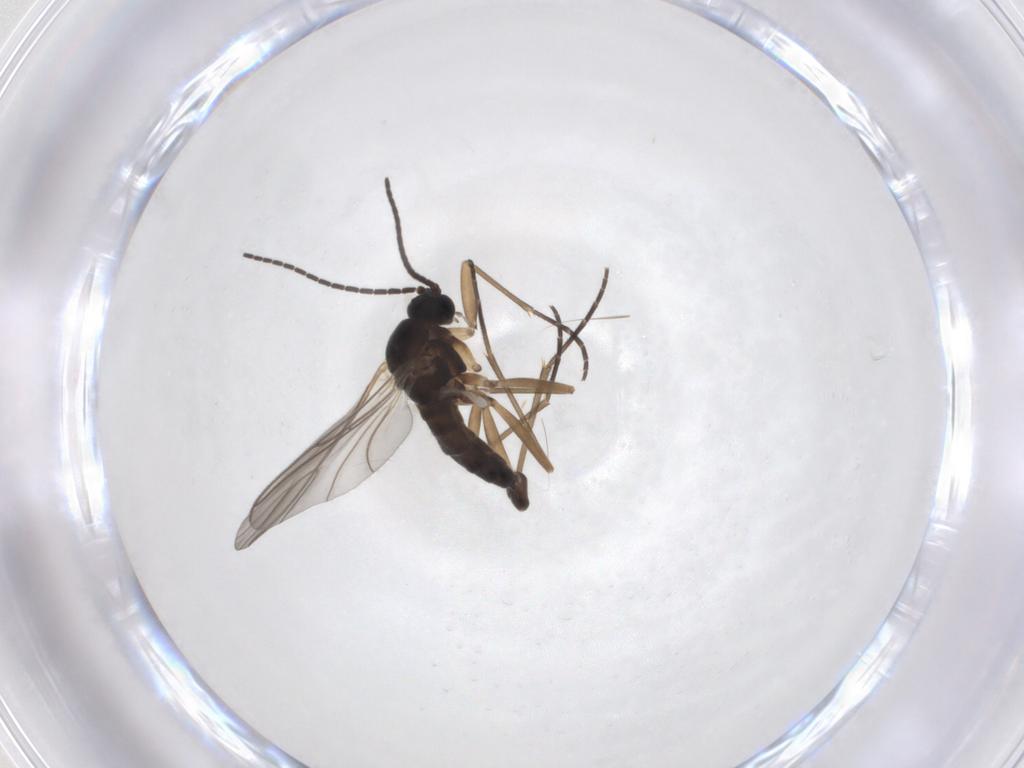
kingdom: Animalia
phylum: Arthropoda
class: Insecta
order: Diptera
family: Sciaridae
